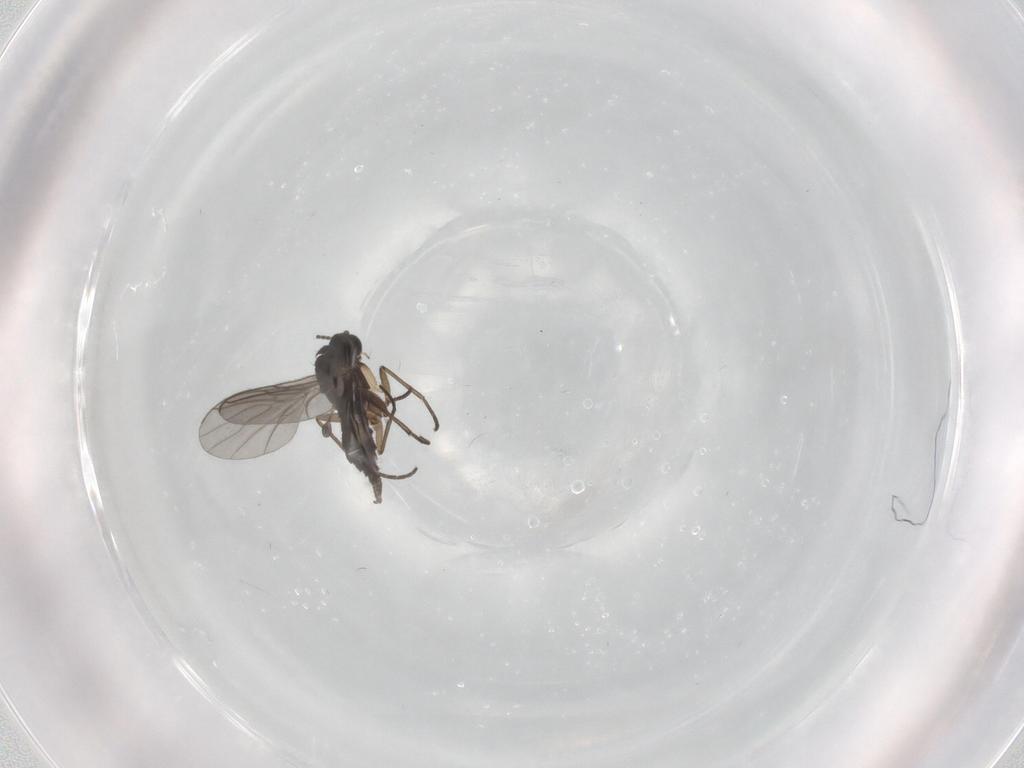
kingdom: Animalia
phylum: Arthropoda
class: Insecta
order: Diptera
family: Sciaridae
